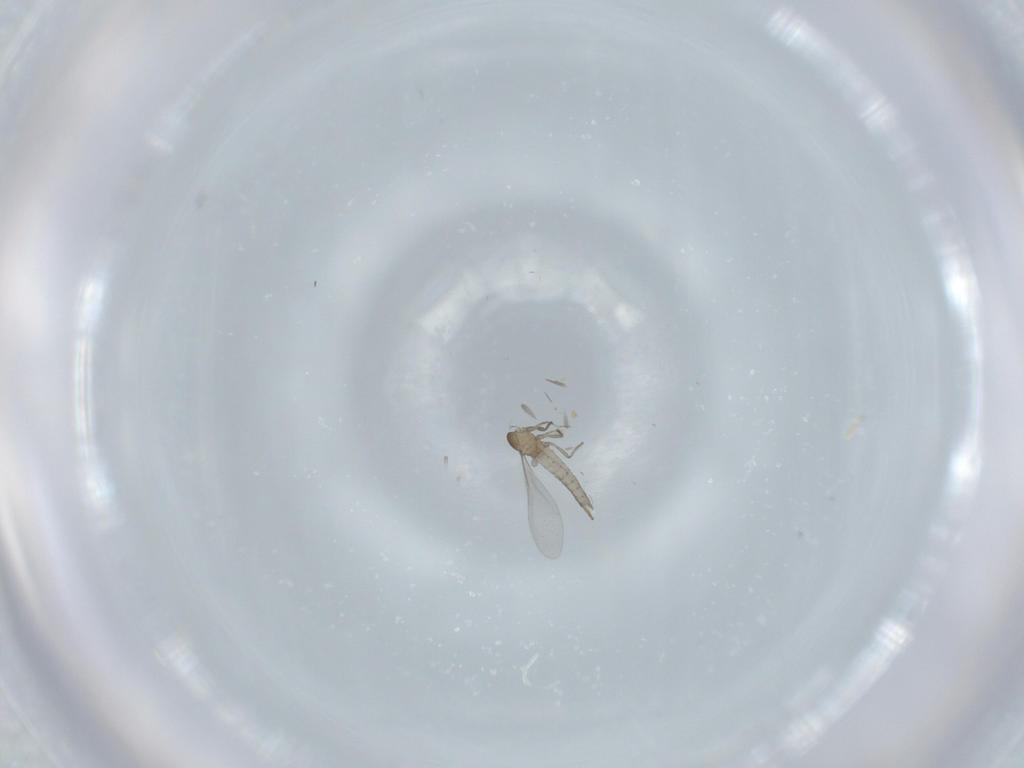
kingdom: Animalia
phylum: Arthropoda
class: Insecta
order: Diptera
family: Cecidomyiidae
